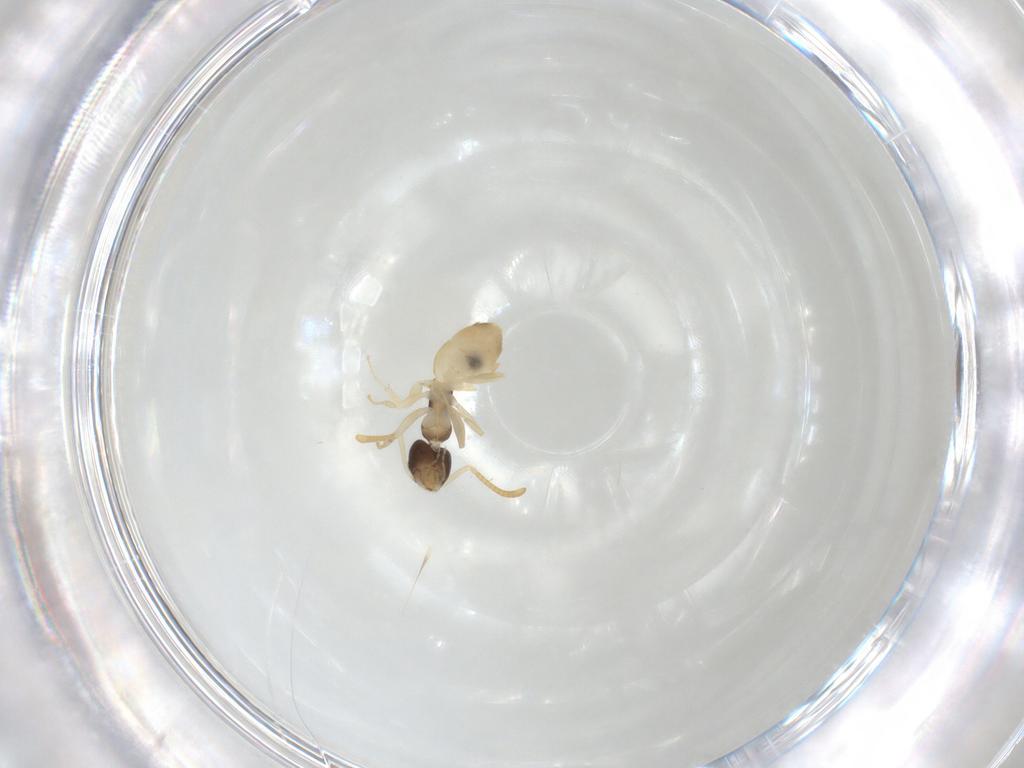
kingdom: Animalia
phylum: Arthropoda
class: Insecta
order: Hymenoptera
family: Formicidae
